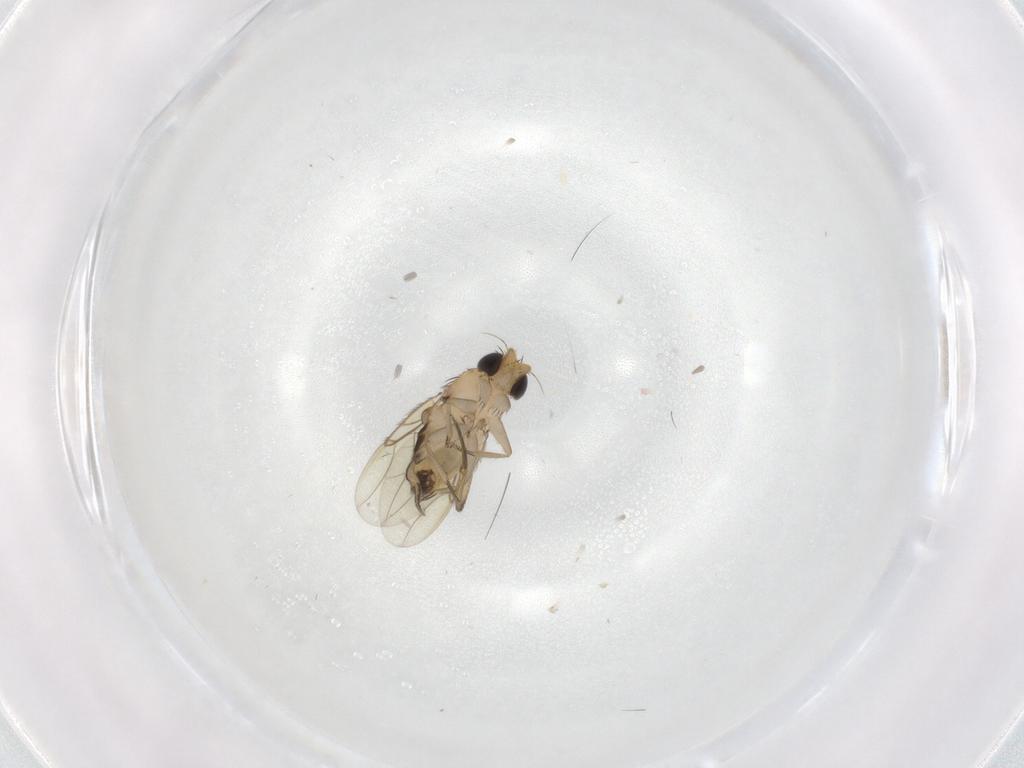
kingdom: Animalia
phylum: Arthropoda
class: Insecta
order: Diptera
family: Phoridae
